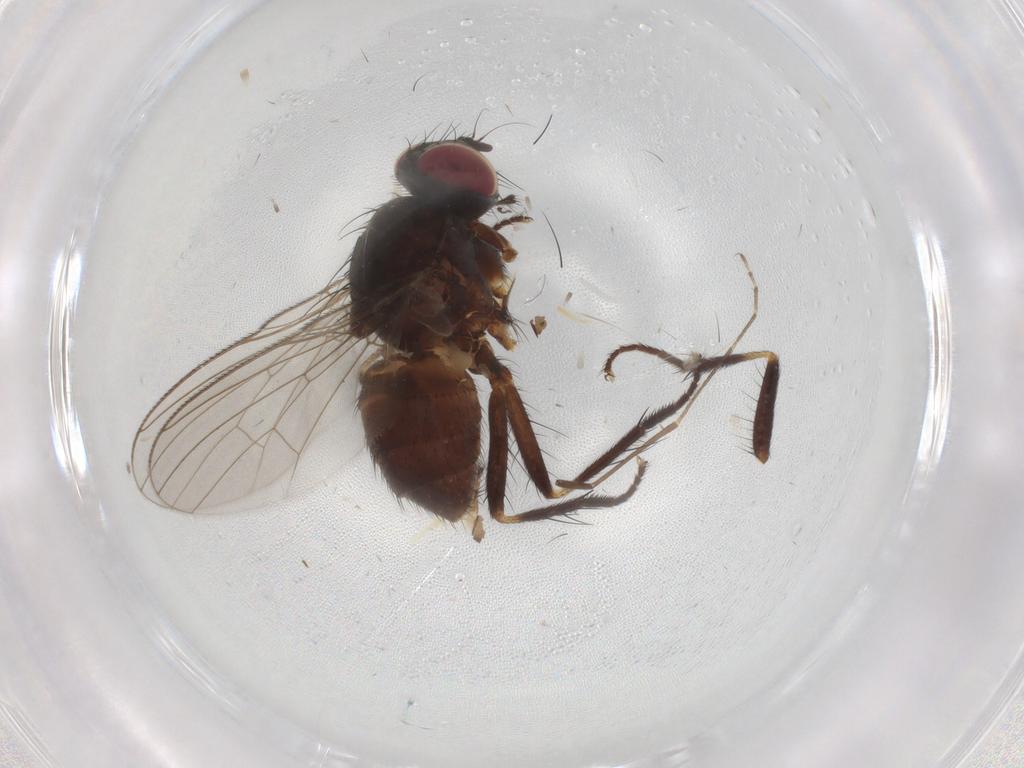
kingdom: Animalia
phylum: Arthropoda
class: Insecta
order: Diptera
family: Muscidae
